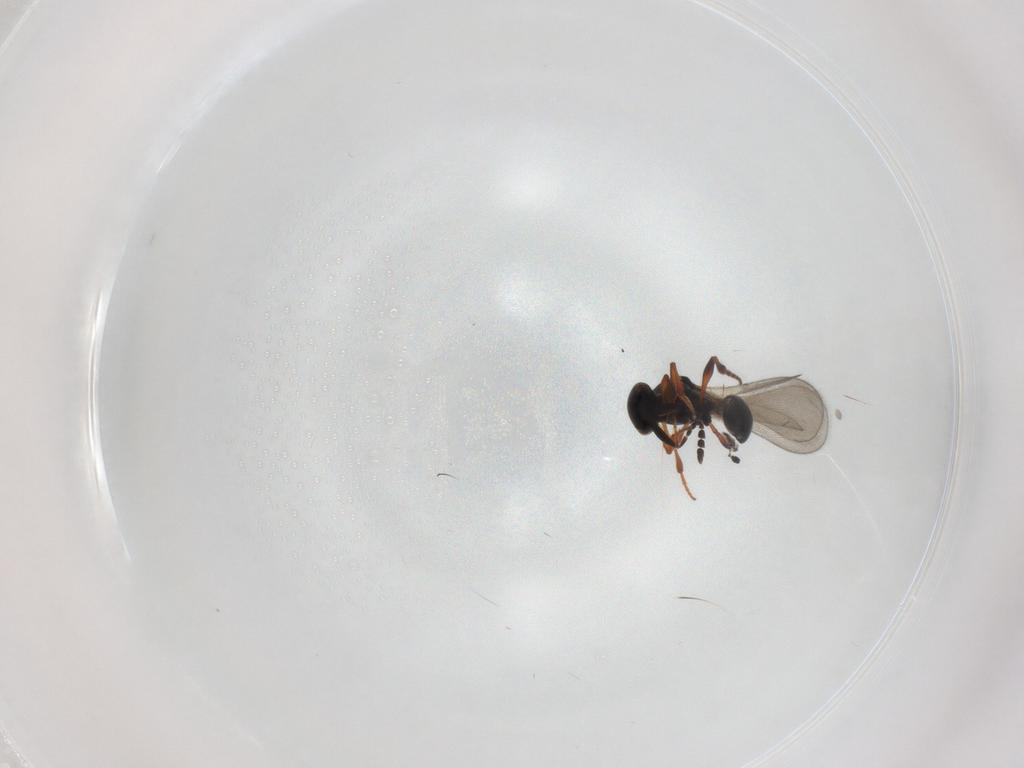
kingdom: Animalia
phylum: Arthropoda
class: Insecta
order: Hymenoptera
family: Platygastridae
